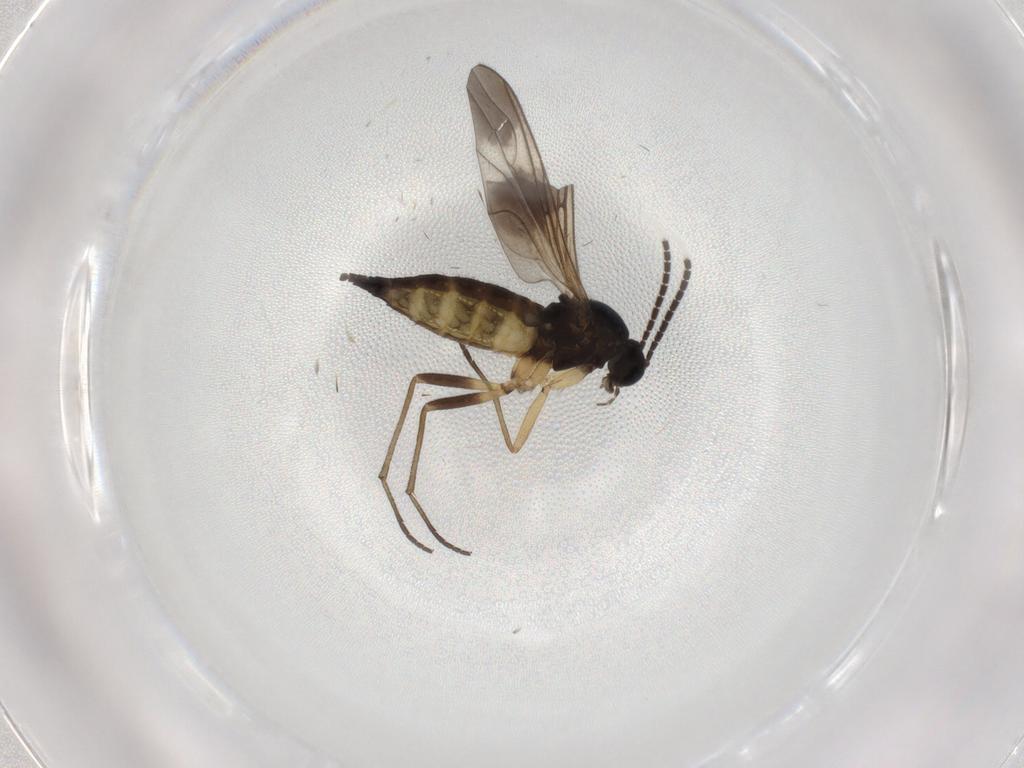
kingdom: Animalia
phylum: Arthropoda
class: Insecta
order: Diptera
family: Sciaridae
